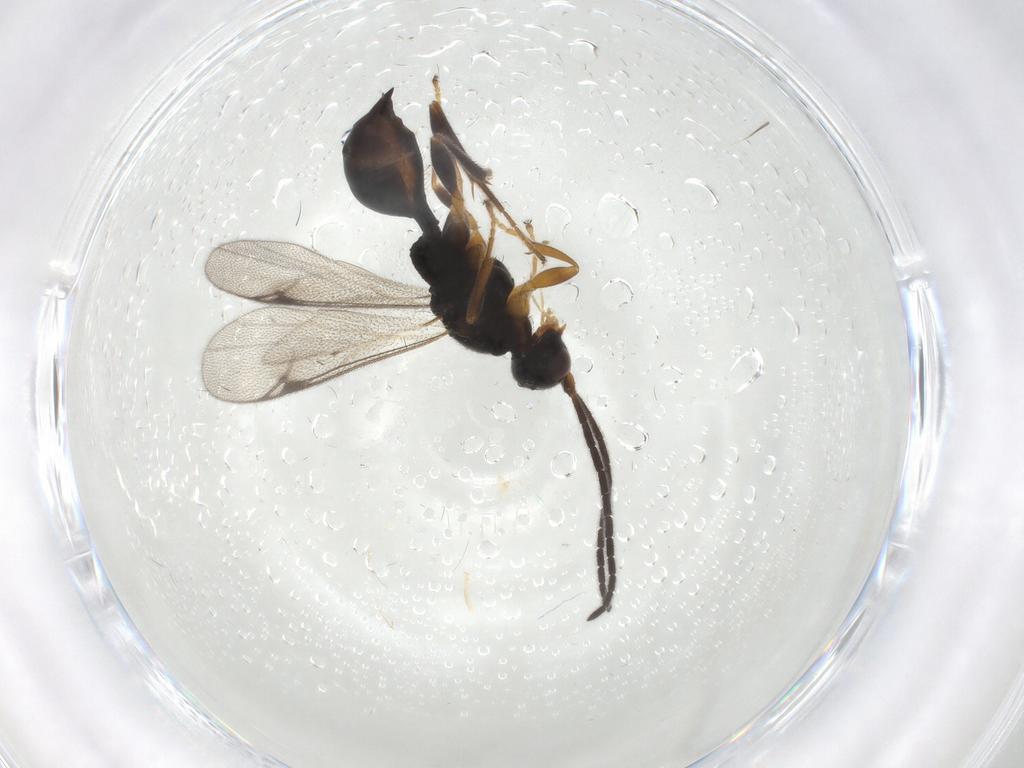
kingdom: Animalia
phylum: Arthropoda
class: Insecta
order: Hymenoptera
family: Proctotrupidae
